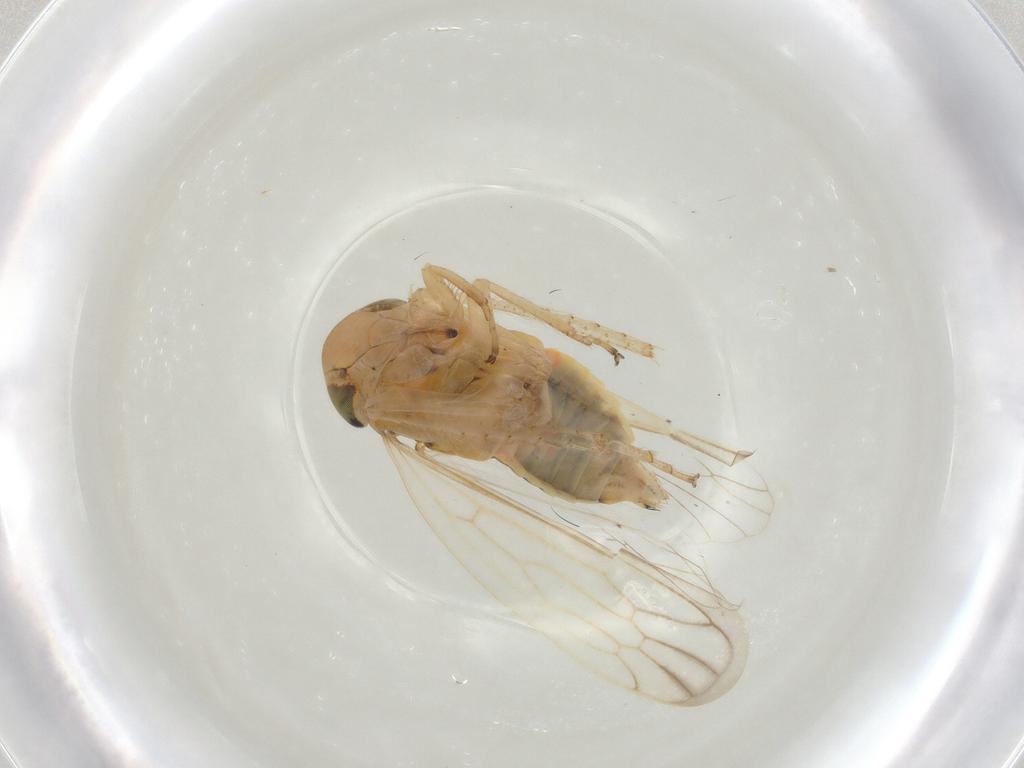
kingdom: Animalia
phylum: Arthropoda
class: Insecta
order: Hemiptera
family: Cicadellidae
